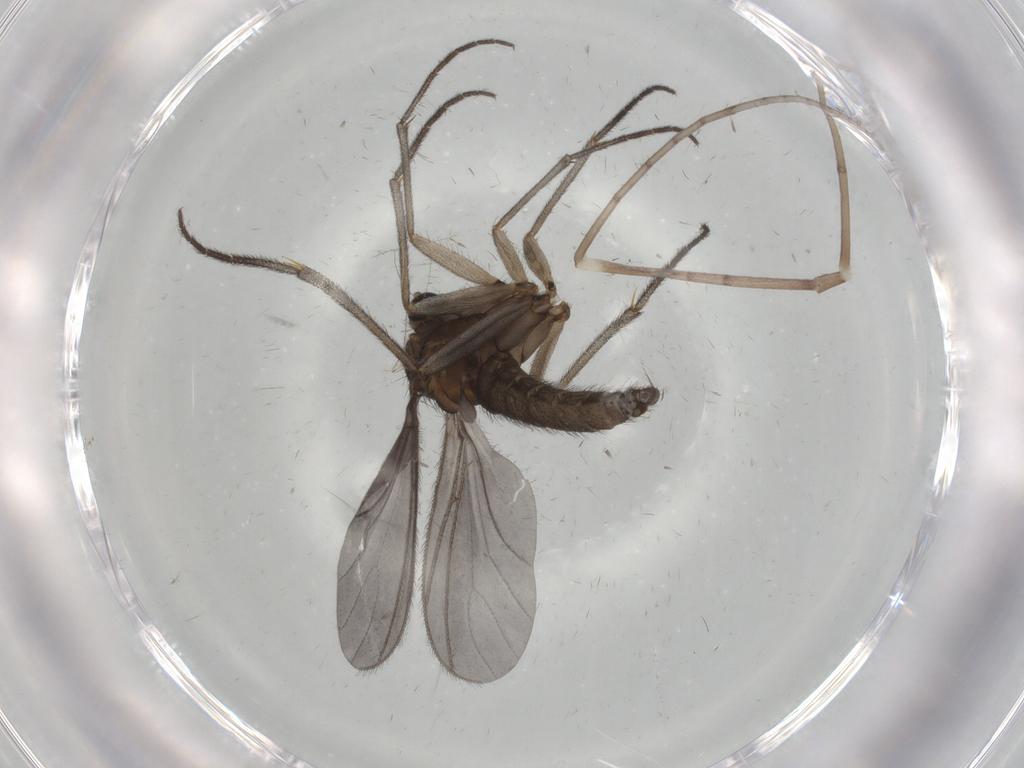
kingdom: Animalia
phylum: Arthropoda
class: Insecta
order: Diptera
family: Sciaridae
